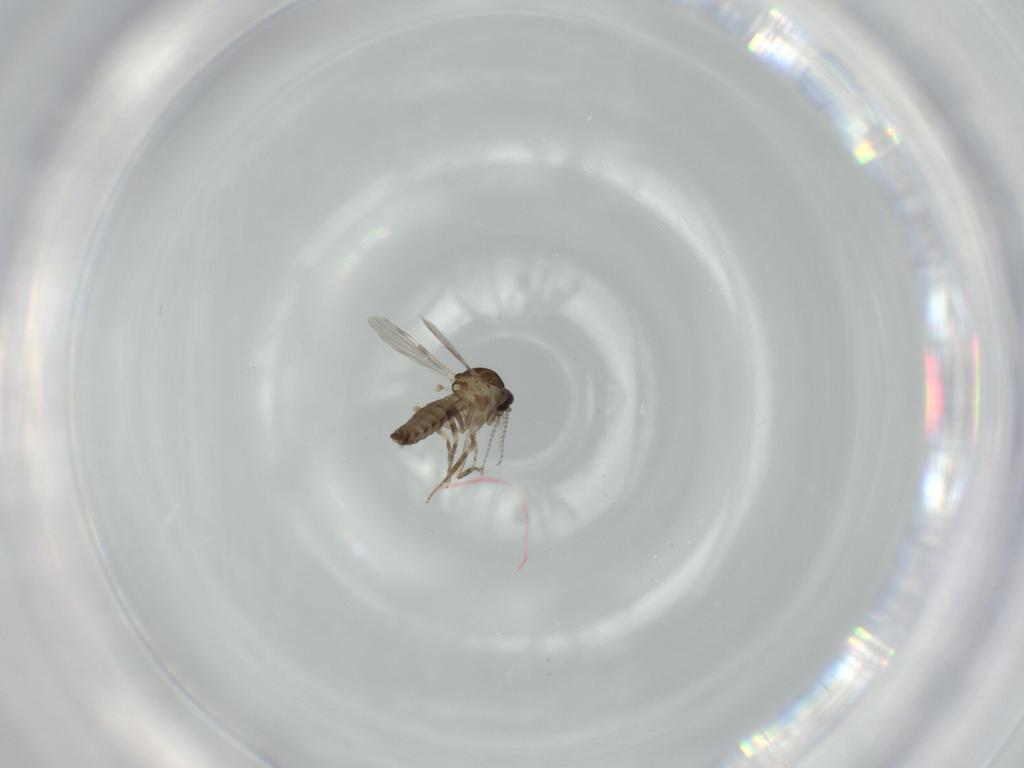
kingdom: Animalia
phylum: Arthropoda
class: Insecta
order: Diptera
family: Ceratopogonidae
